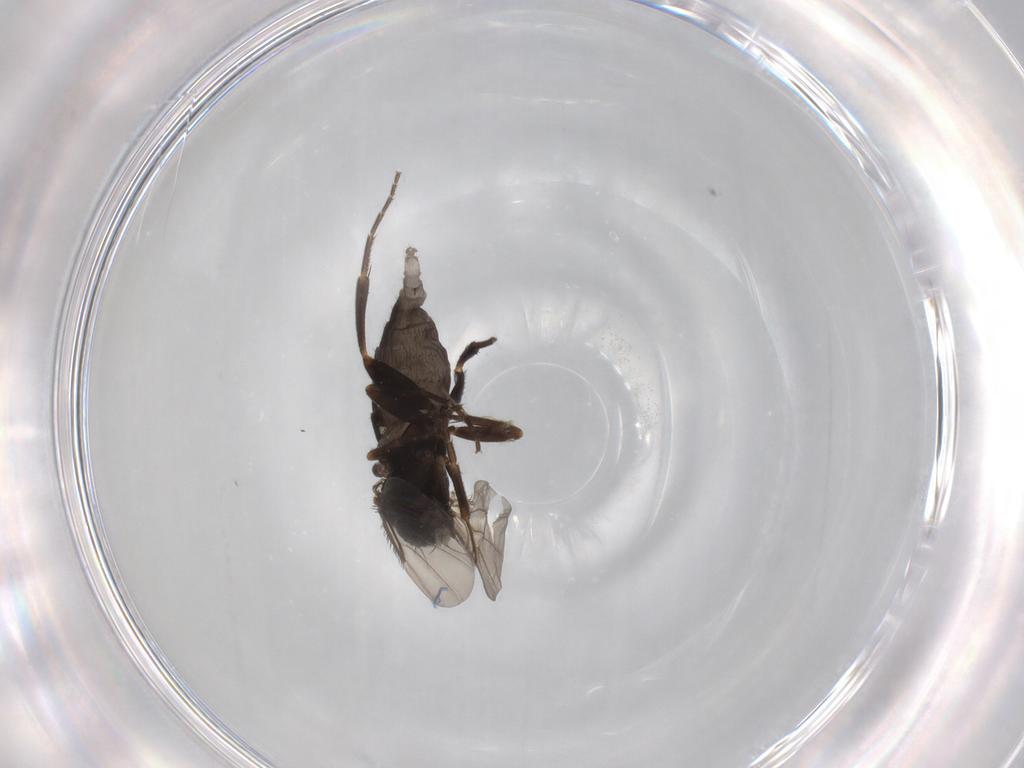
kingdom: Animalia
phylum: Arthropoda
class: Insecta
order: Diptera
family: Phoridae
